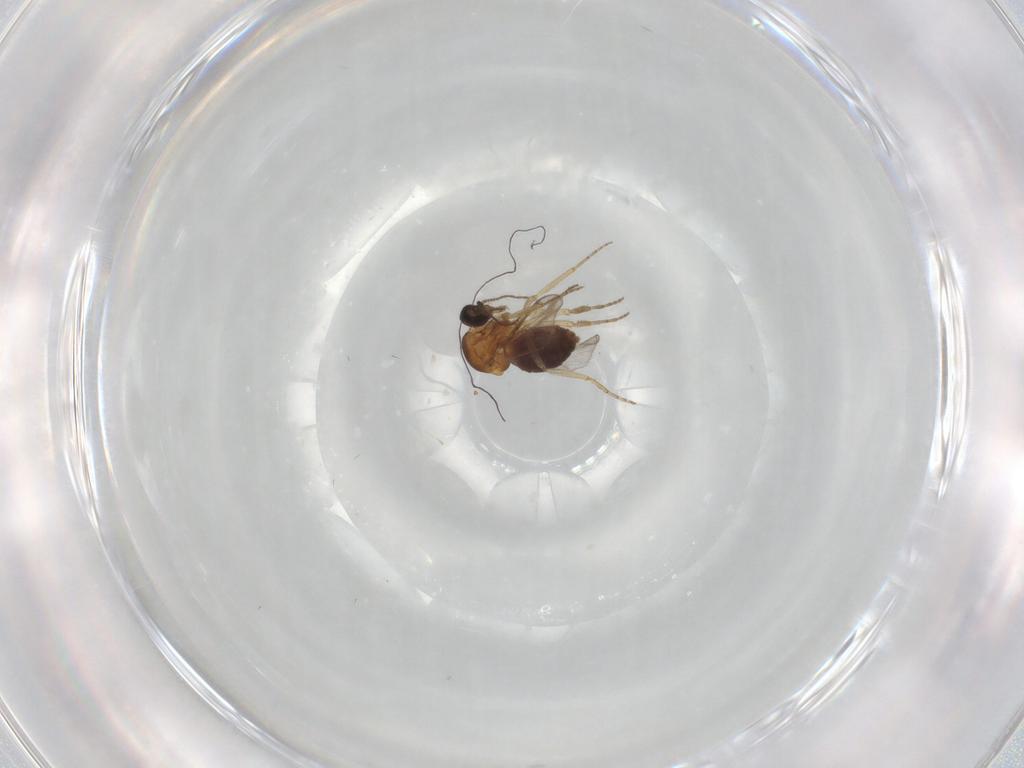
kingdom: Animalia
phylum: Arthropoda
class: Insecta
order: Diptera
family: Ceratopogonidae
